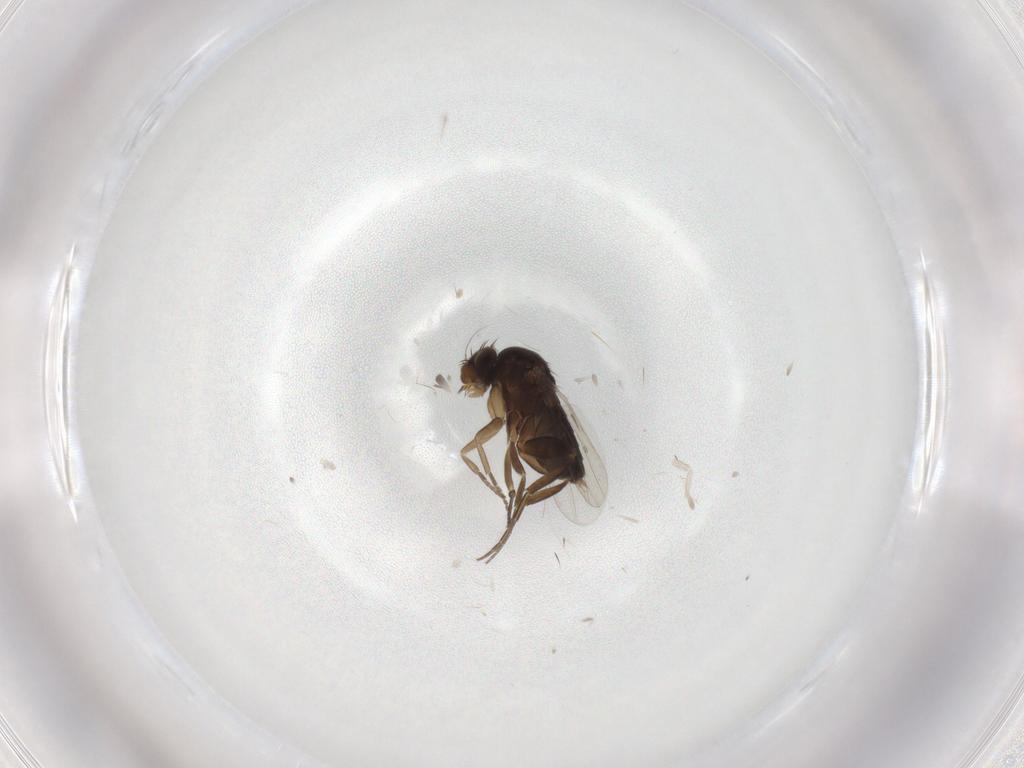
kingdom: Animalia
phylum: Arthropoda
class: Insecta
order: Diptera
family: Phoridae
